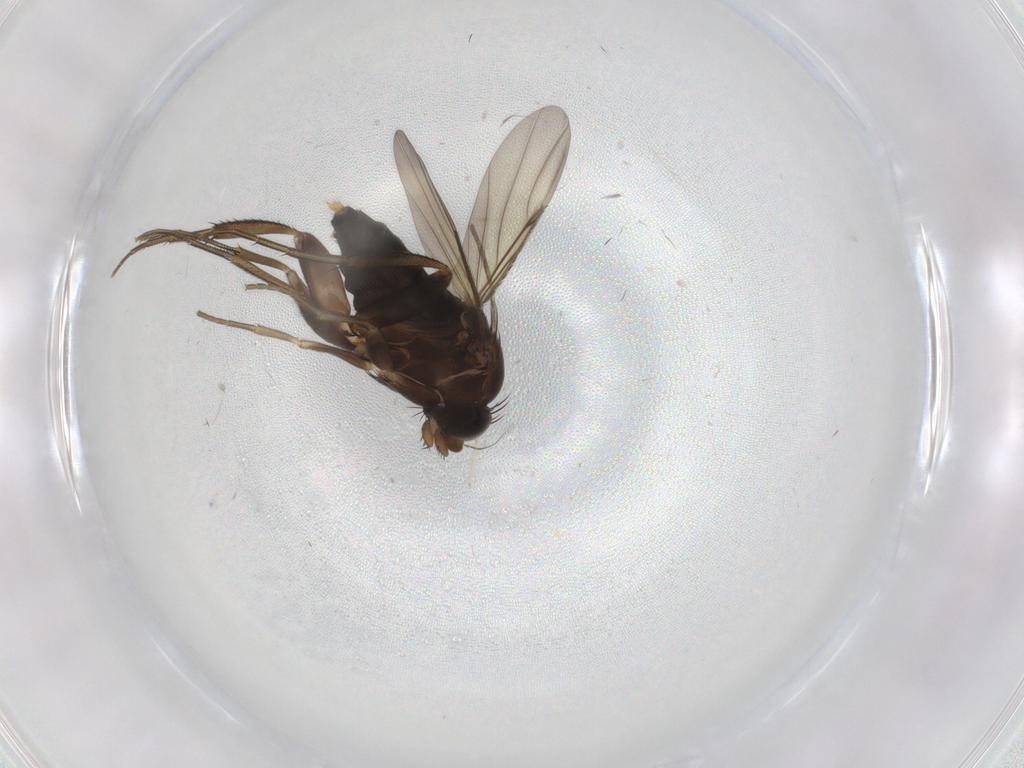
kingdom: Animalia
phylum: Arthropoda
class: Insecta
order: Diptera
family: Phoridae
